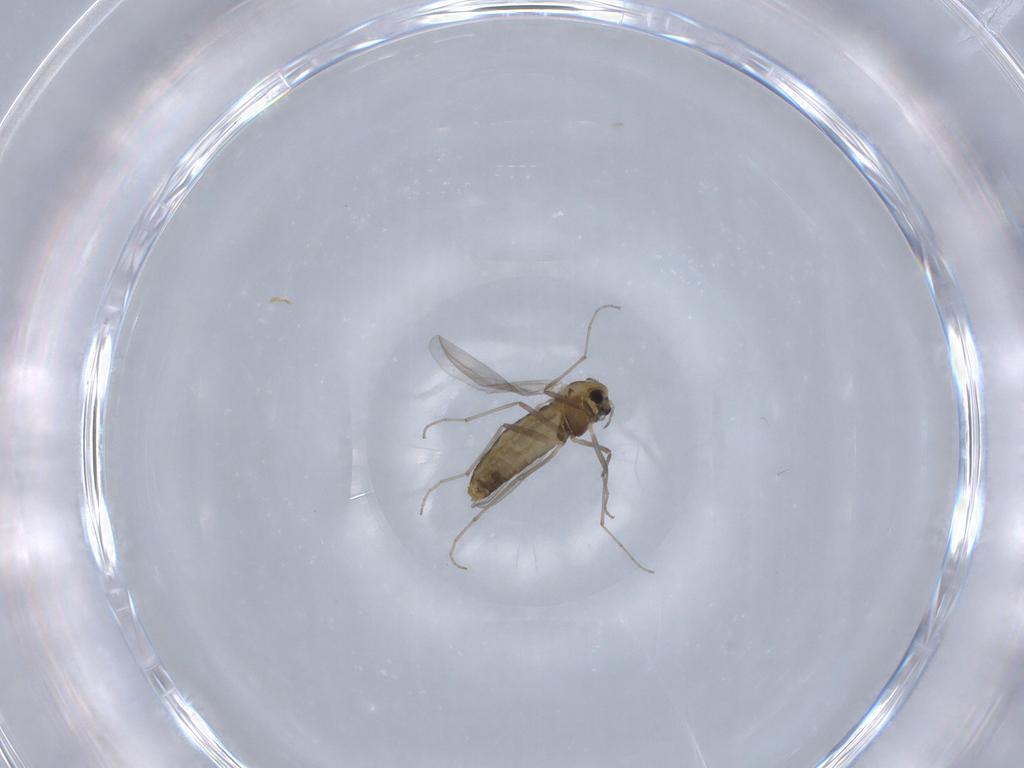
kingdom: Animalia
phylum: Arthropoda
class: Insecta
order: Diptera
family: Chironomidae
